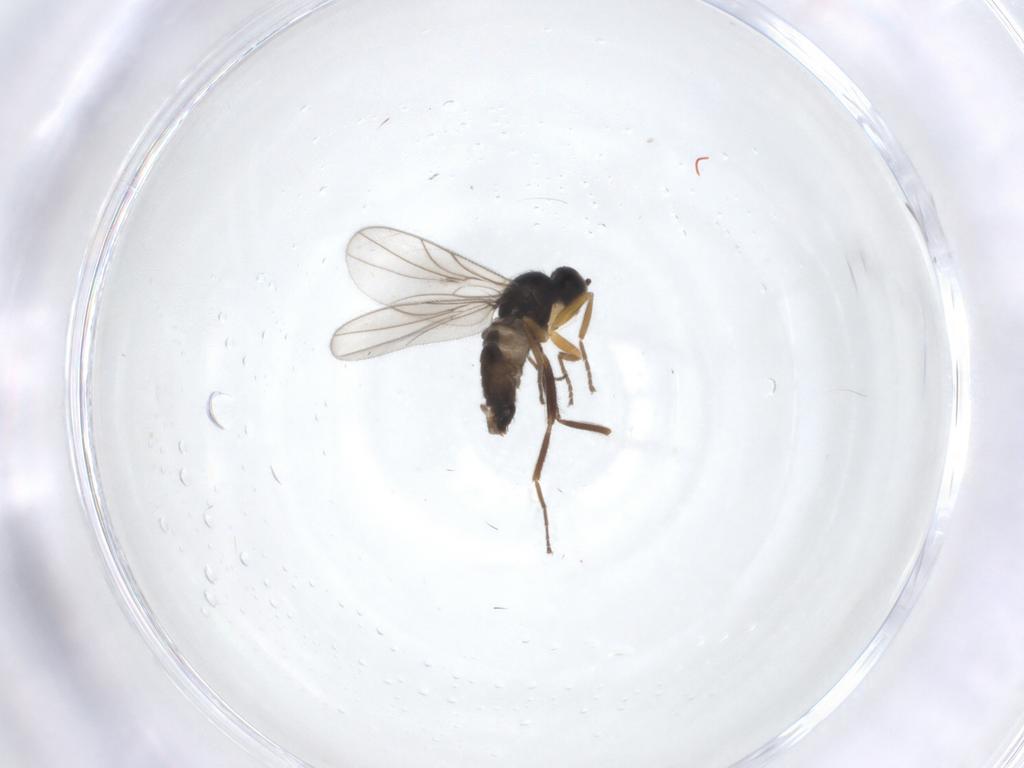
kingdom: Animalia
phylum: Arthropoda
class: Insecta
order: Diptera
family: Hybotidae
